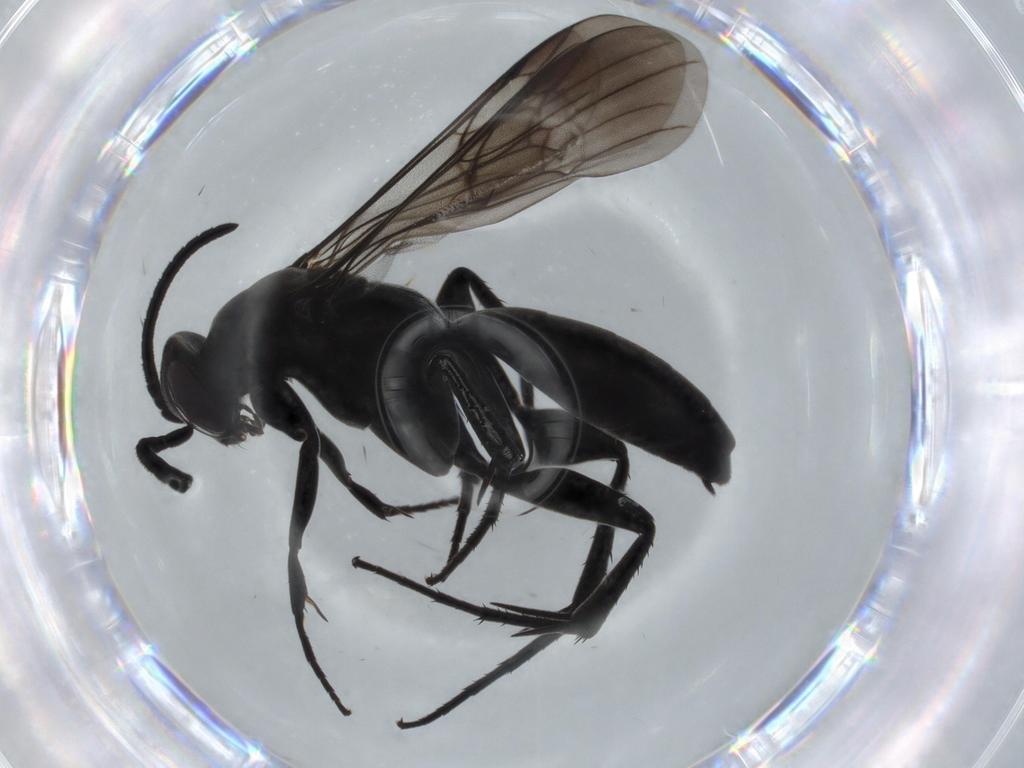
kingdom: Animalia
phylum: Arthropoda
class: Insecta
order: Hymenoptera
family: Pompilidae
